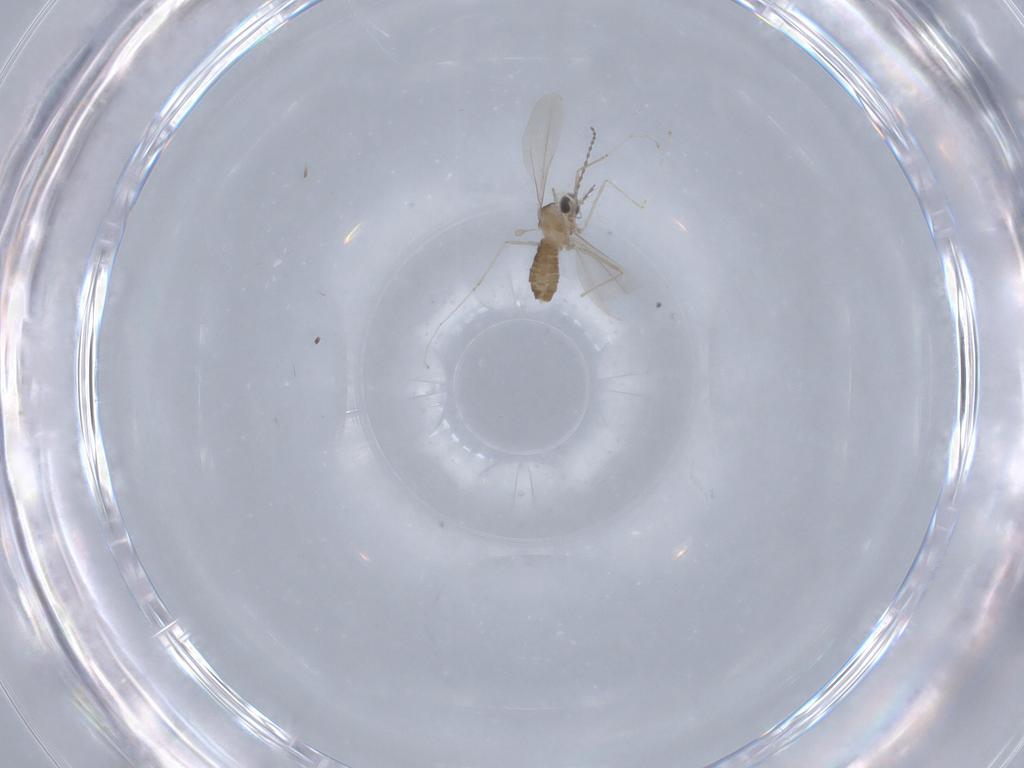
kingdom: Animalia
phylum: Arthropoda
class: Insecta
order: Diptera
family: Cecidomyiidae
